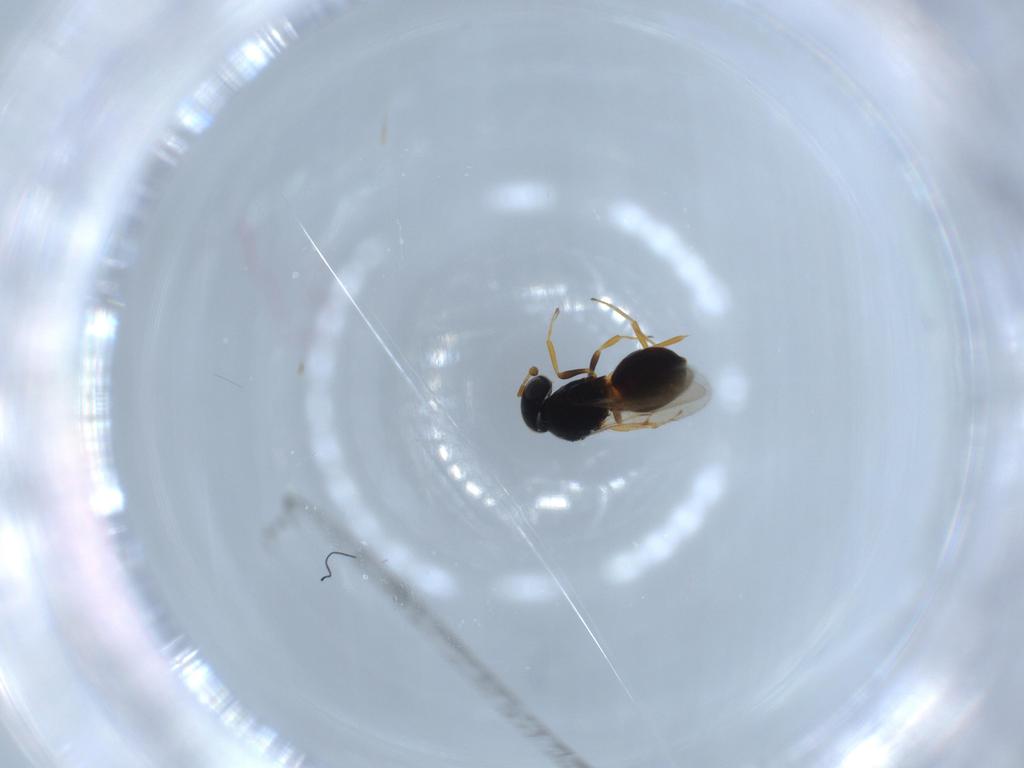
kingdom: Animalia
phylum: Arthropoda
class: Insecta
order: Hymenoptera
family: Scelionidae
